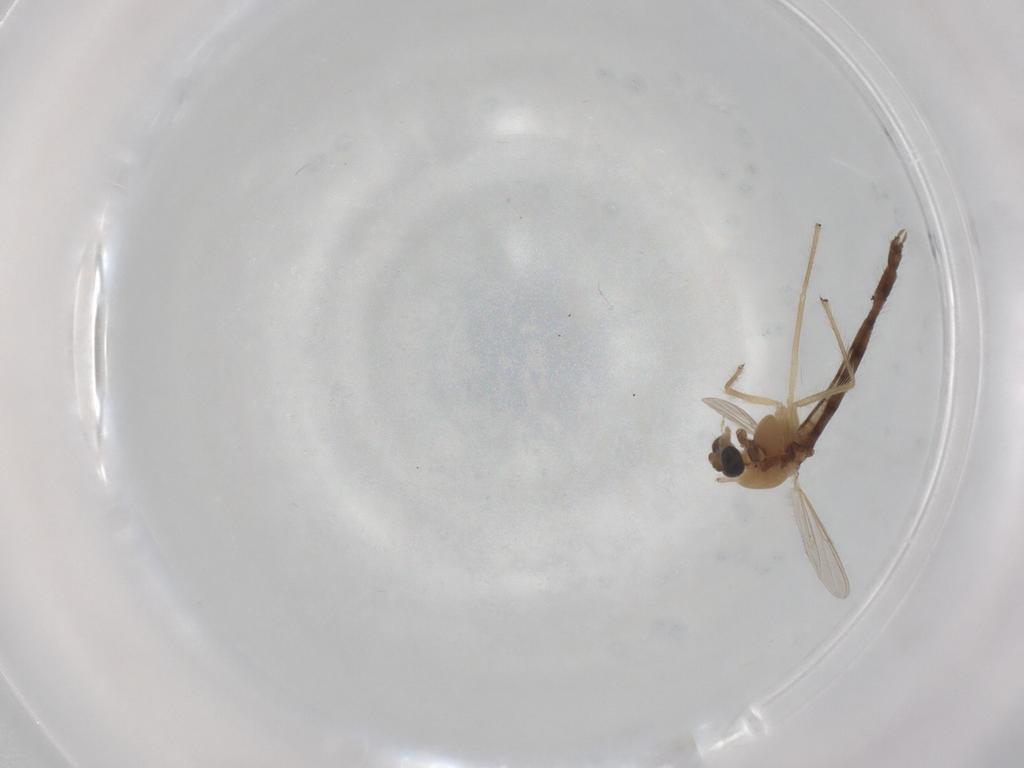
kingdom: Animalia
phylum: Arthropoda
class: Insecta
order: Diptera
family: Chironomidae
